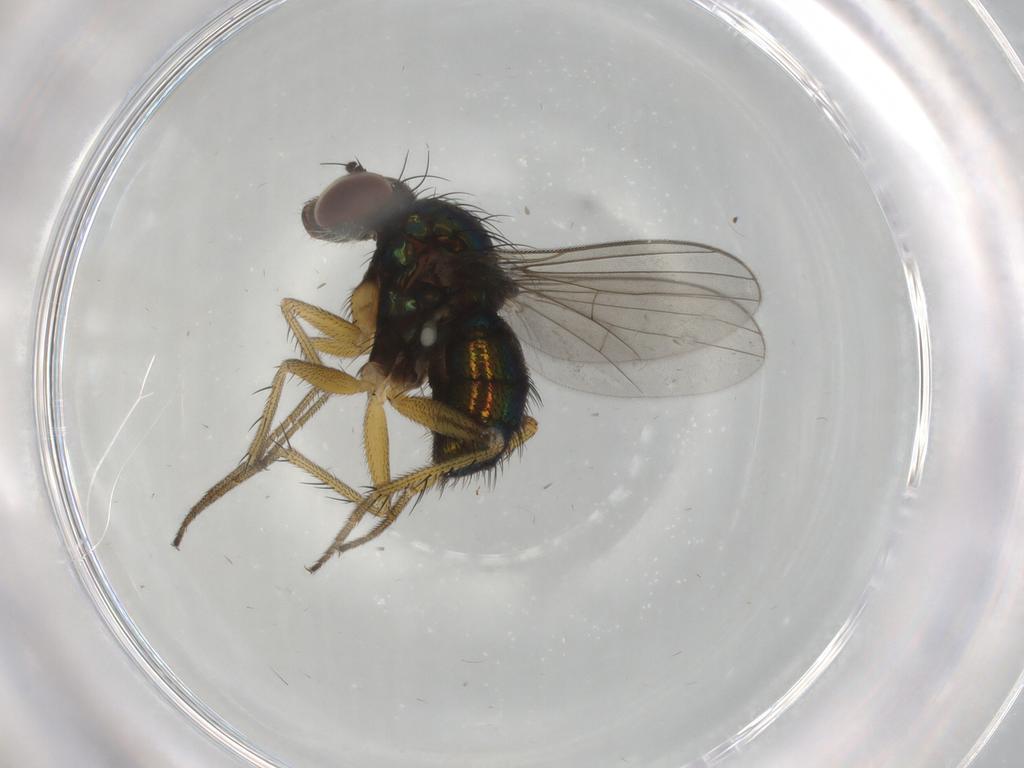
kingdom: Animalia
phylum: Arthropoda
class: Insecta
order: Diptera
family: Dolichopodidae
